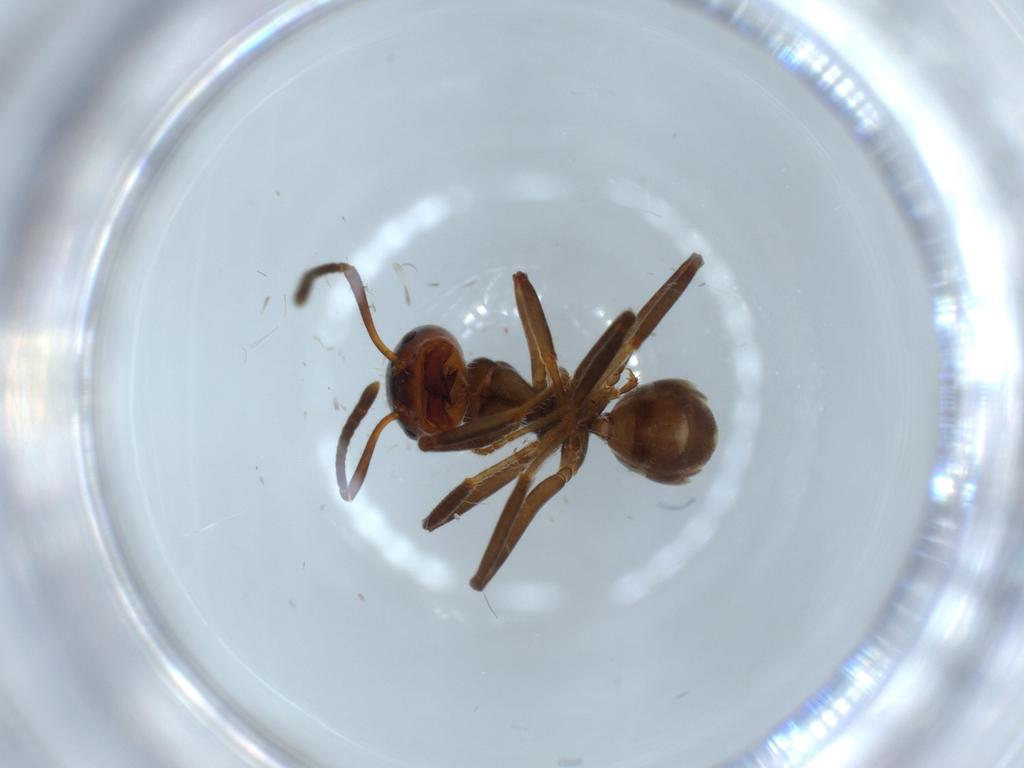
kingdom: Animalia
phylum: Arthropoda
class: Insecta
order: Hymenoptera
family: Formicidae
